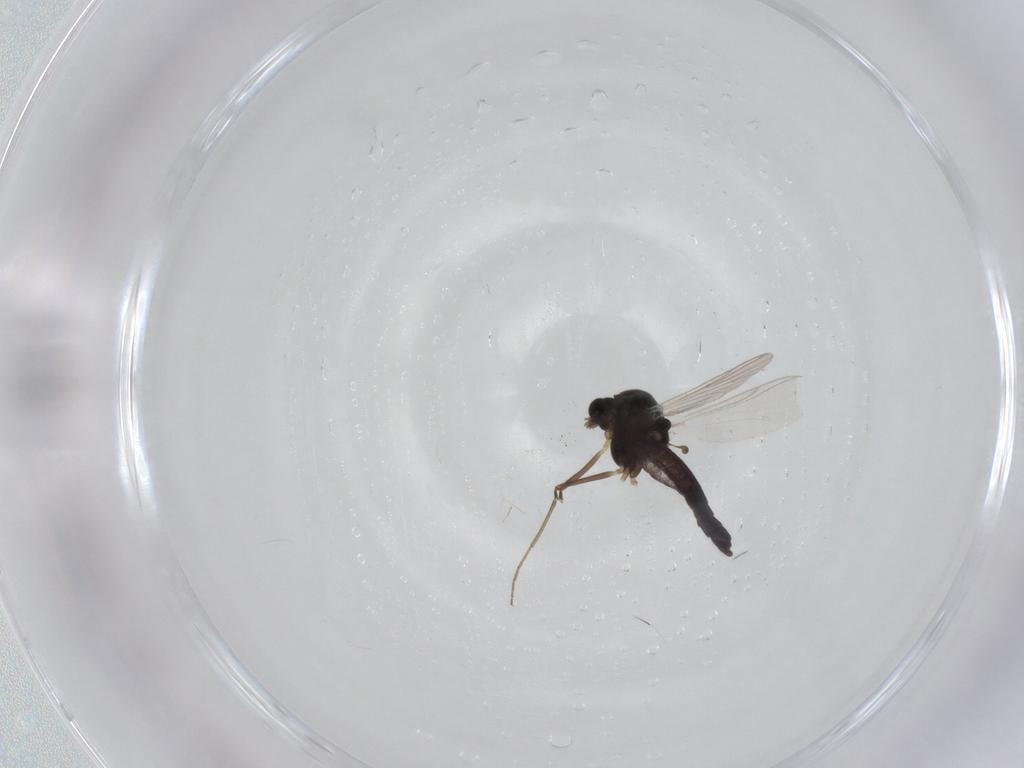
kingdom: Animalia
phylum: Arthropoda
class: Insecta
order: Diptera
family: Chironomidae
